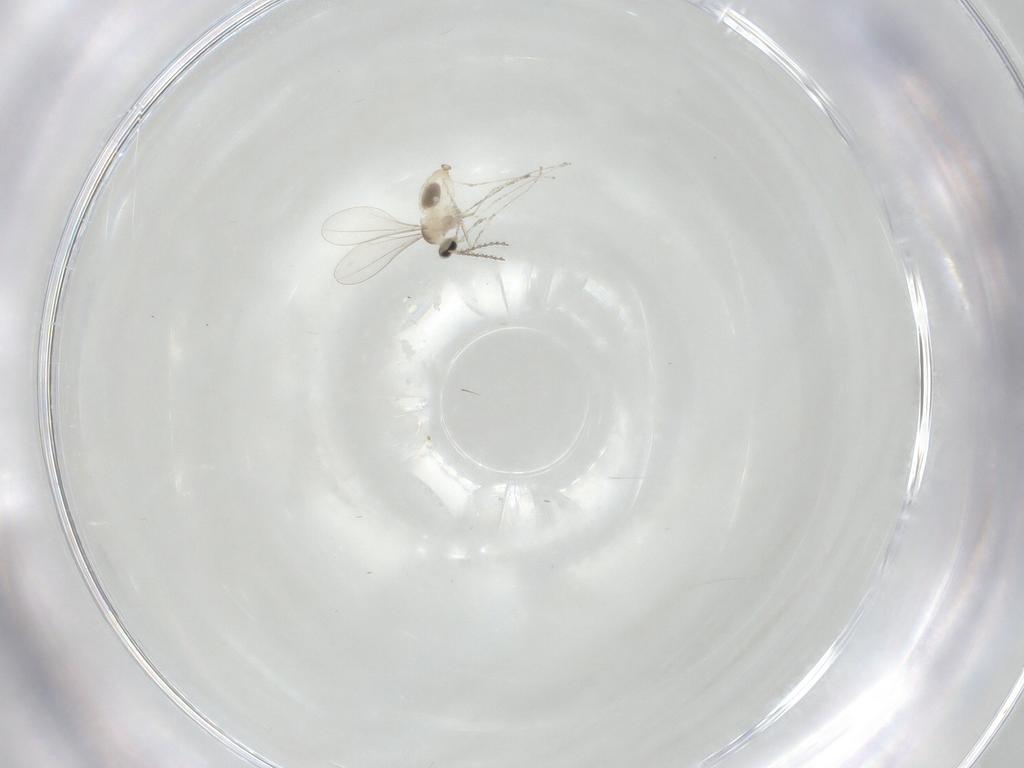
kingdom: Animalia
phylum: Arthropoda
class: Insecta
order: Diptera
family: Cecidomyiidae
